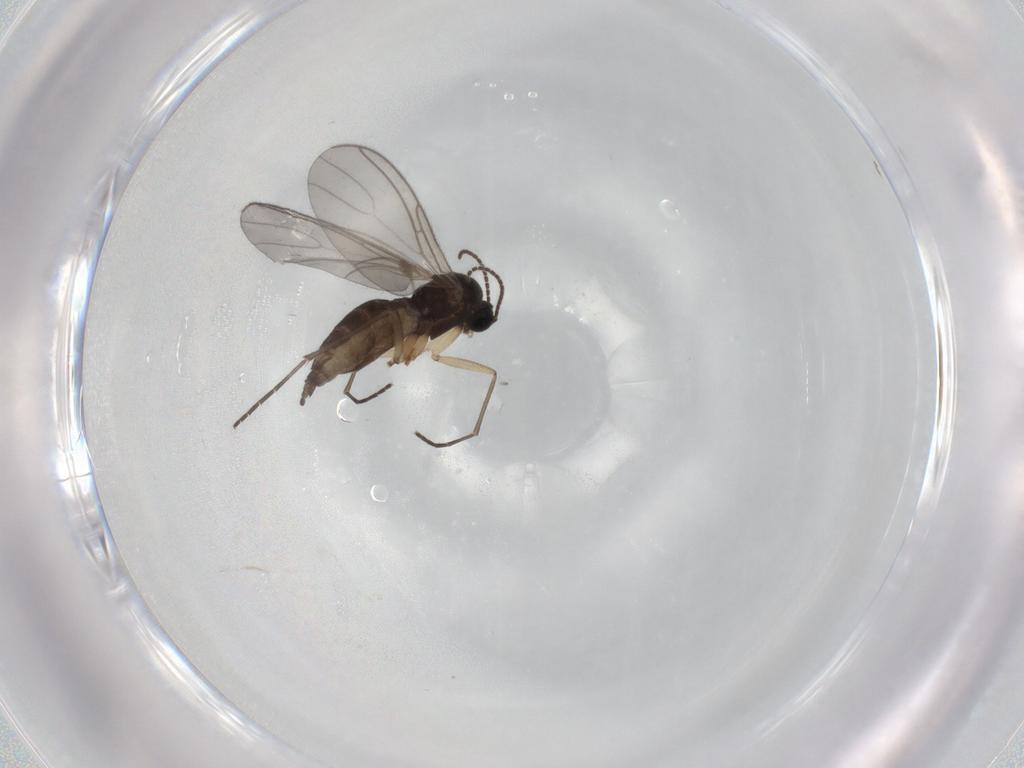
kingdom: Animalia
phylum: Arthropoda
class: Insecta
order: Diptera
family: Sciaridae
